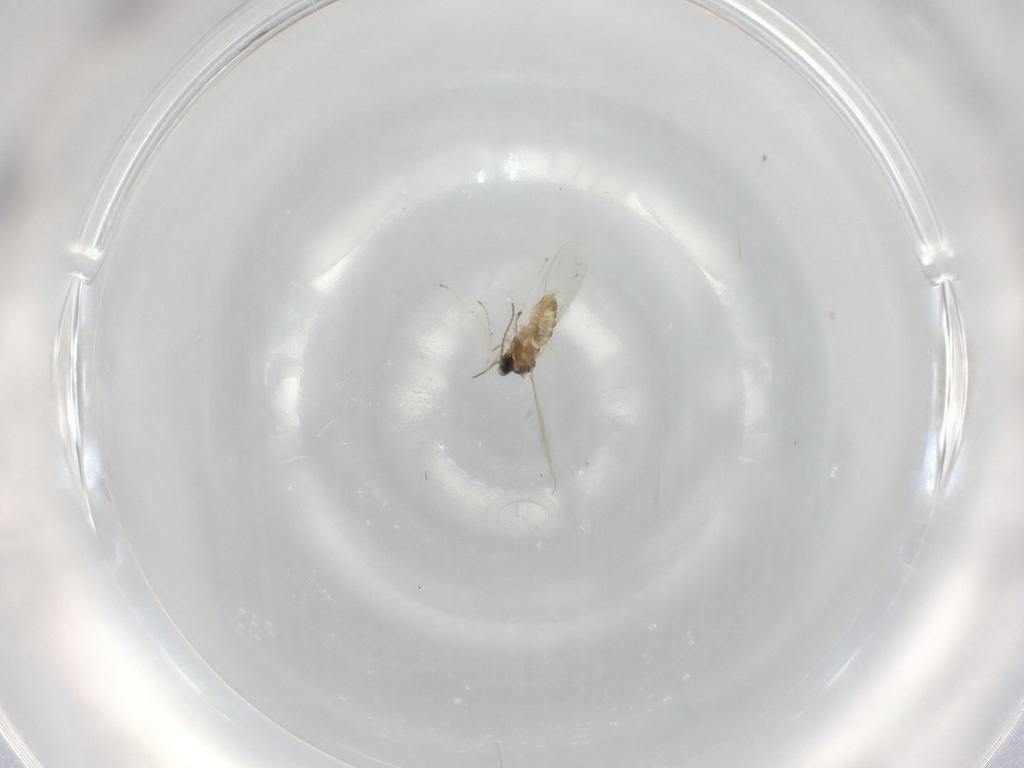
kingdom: Animalia
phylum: Arthropoda
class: Insecta
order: Diptera
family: Cecidomyiidae
